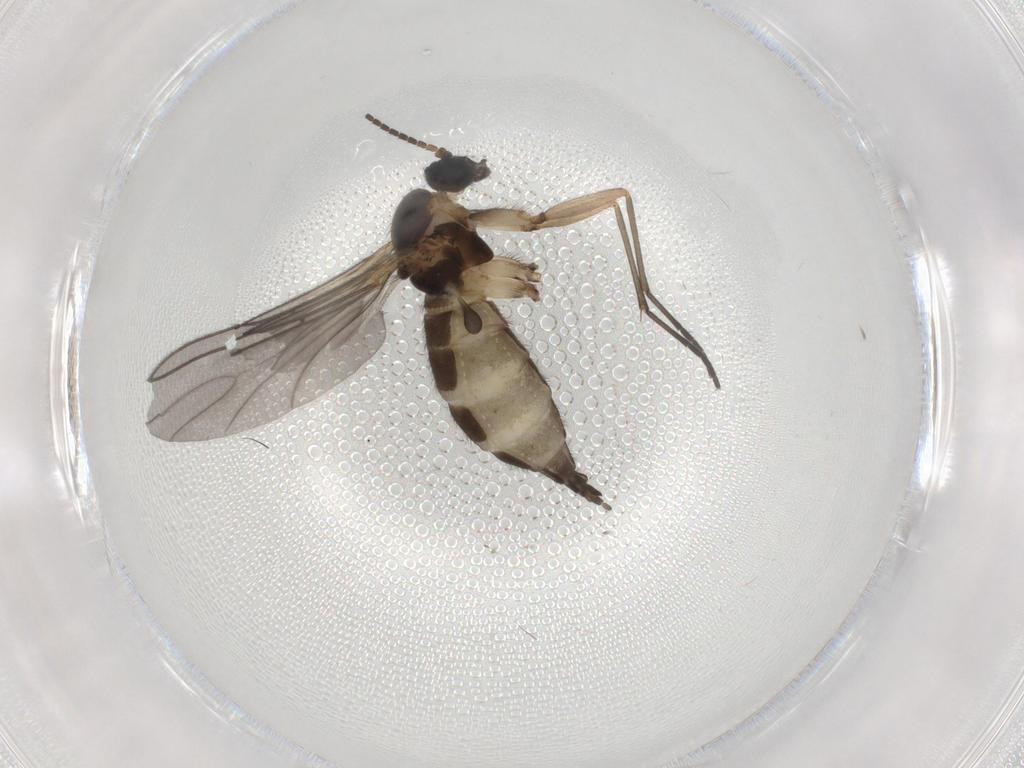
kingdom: Animalia
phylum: Arthropoda
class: Insecta
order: Diptera
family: Sciaridae
